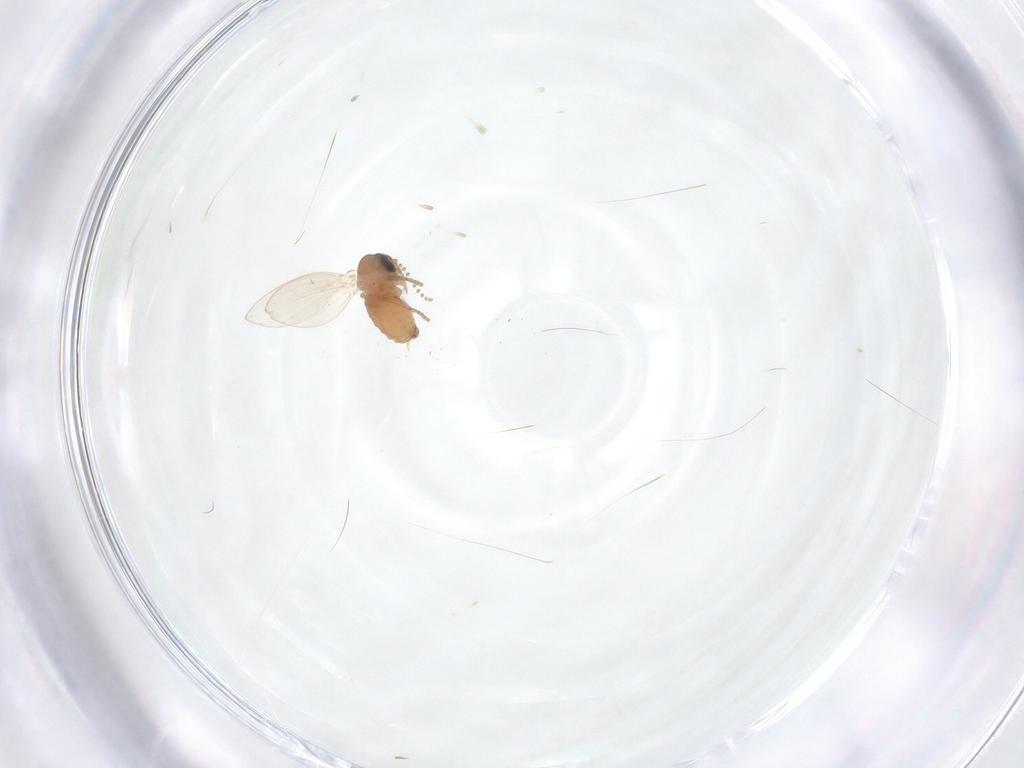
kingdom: Animalia
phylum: Arthropoda
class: Insecta
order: Diptera
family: Psychodidae
